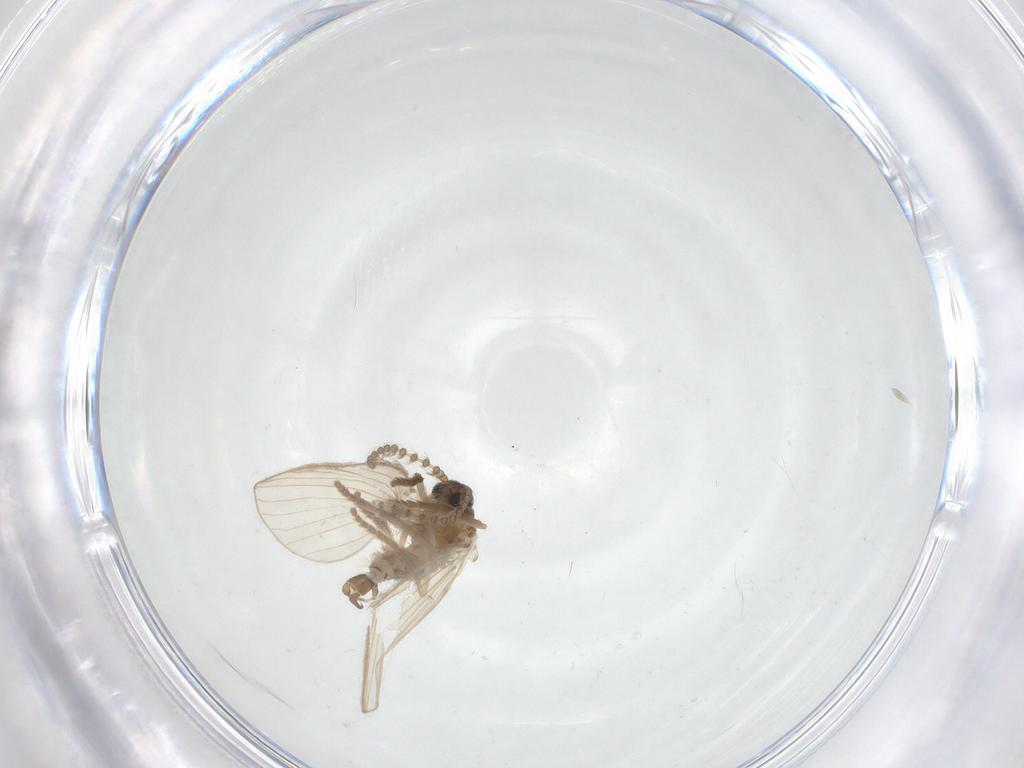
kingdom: Animalia
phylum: Arthropoda
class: Insecta
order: Diptera
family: Psychodidae
